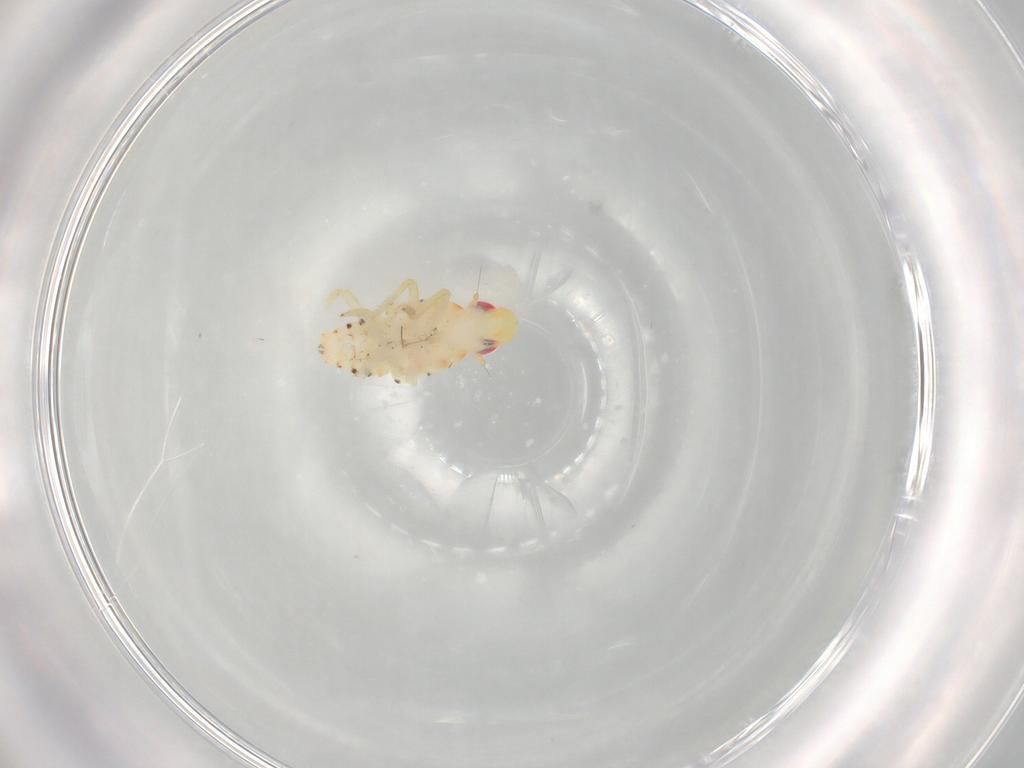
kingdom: Animalia
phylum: Arthropoda
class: Insecta
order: Hemiptera
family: Tropiduchidae
